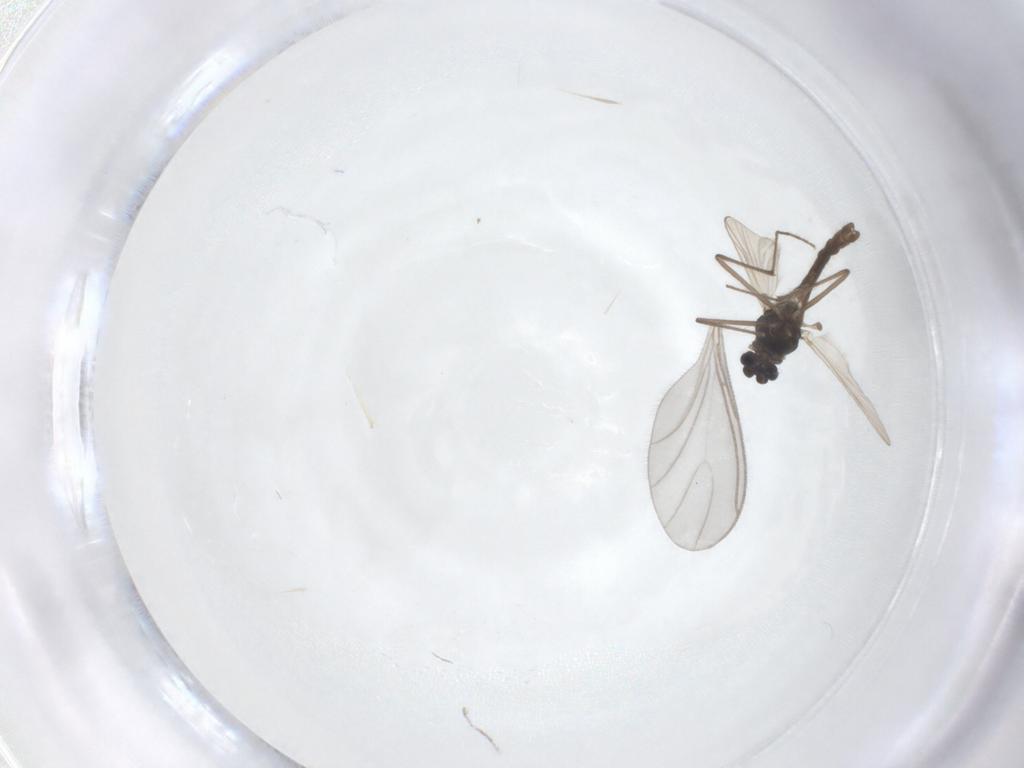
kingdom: Animalia
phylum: Arthropoda
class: Insecta
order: Diptera
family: Chironomidae
